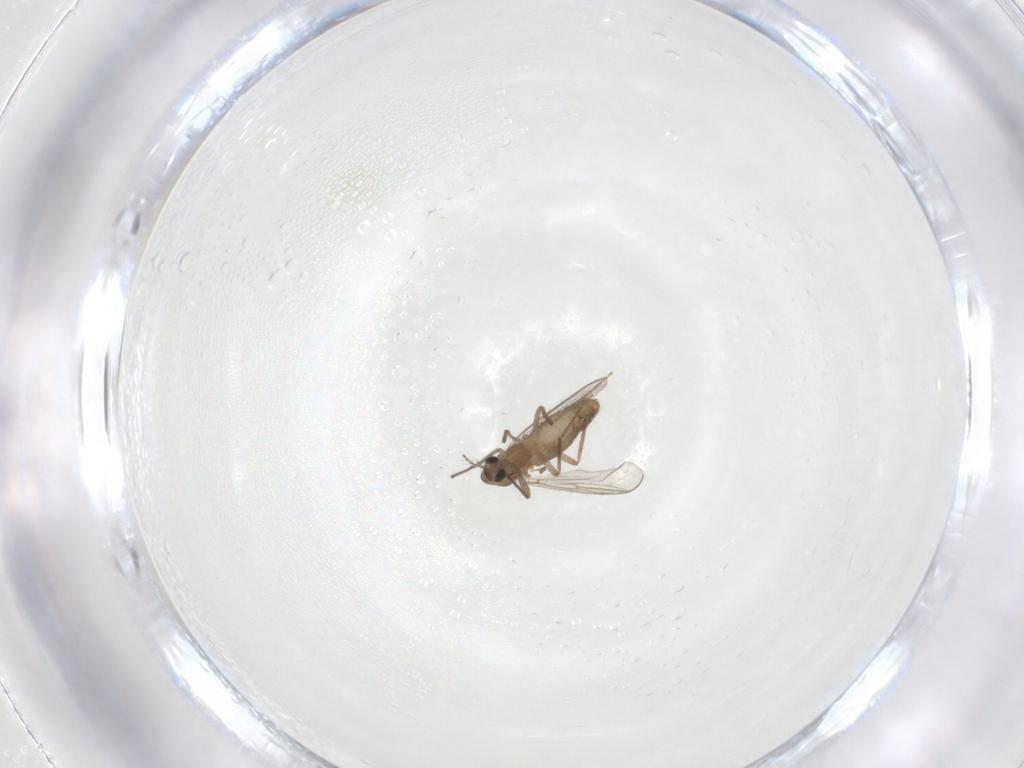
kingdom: Animalia
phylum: Arthropoda
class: Insecta
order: Diptera
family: Chironomidae
